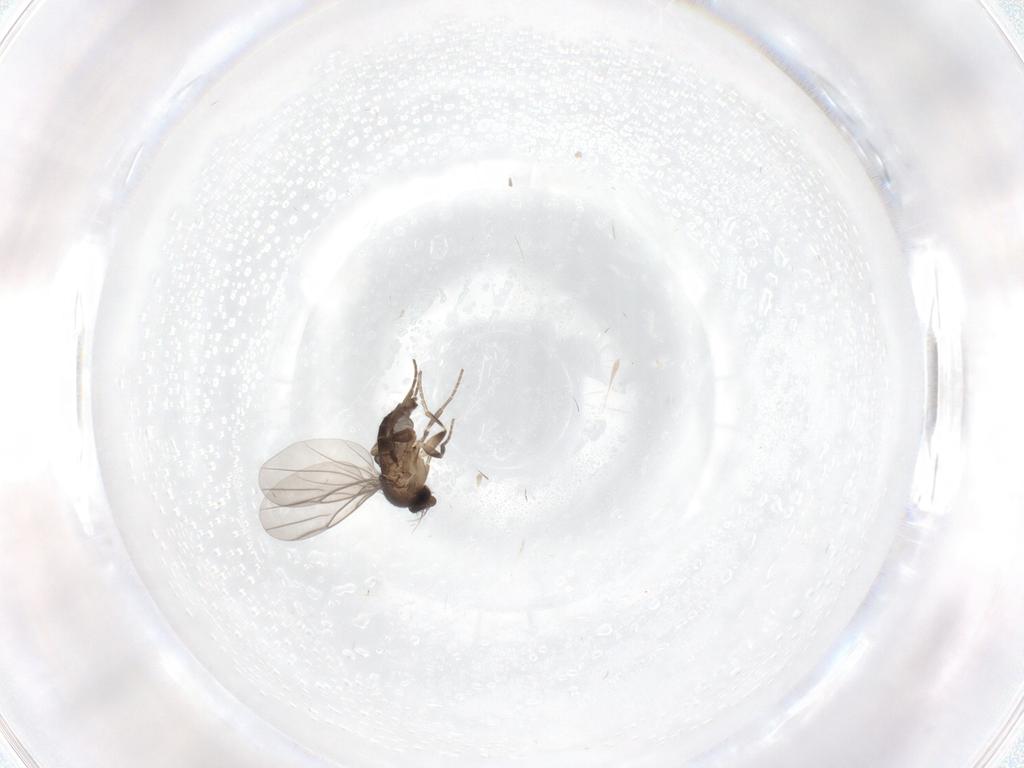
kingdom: Animalia
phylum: Arthropoda
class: Insecta
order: Diptera
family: Phoridae
